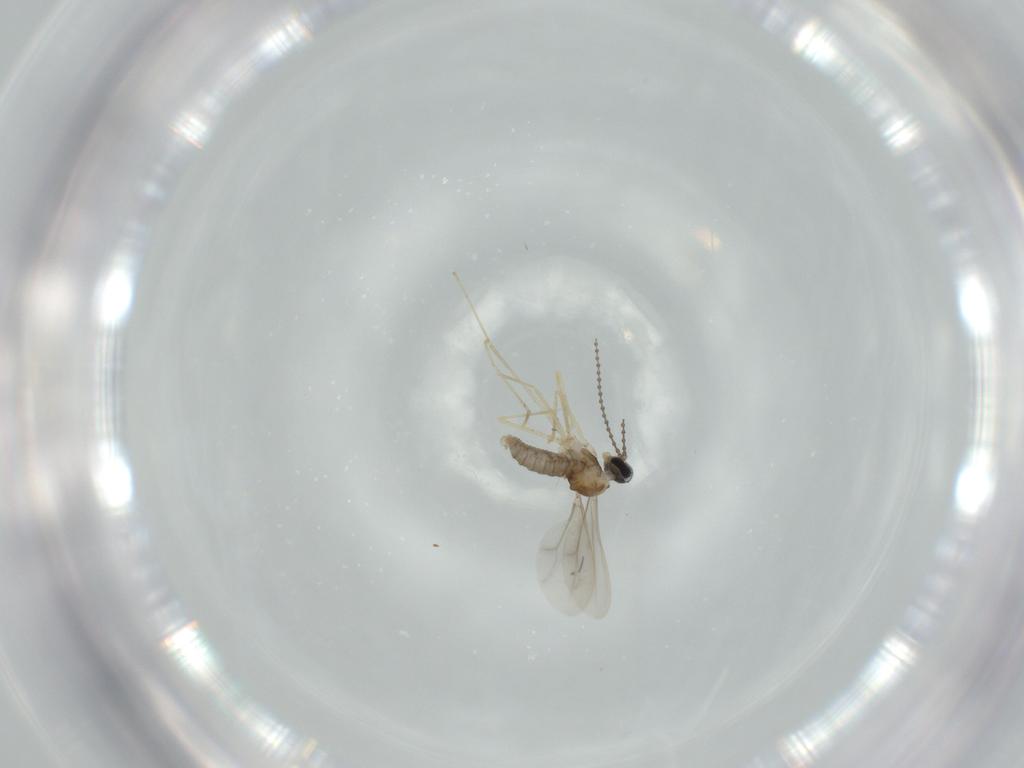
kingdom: Animalia
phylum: Arthropoda
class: Insecta
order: Diptera
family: Cecidomyiidae
